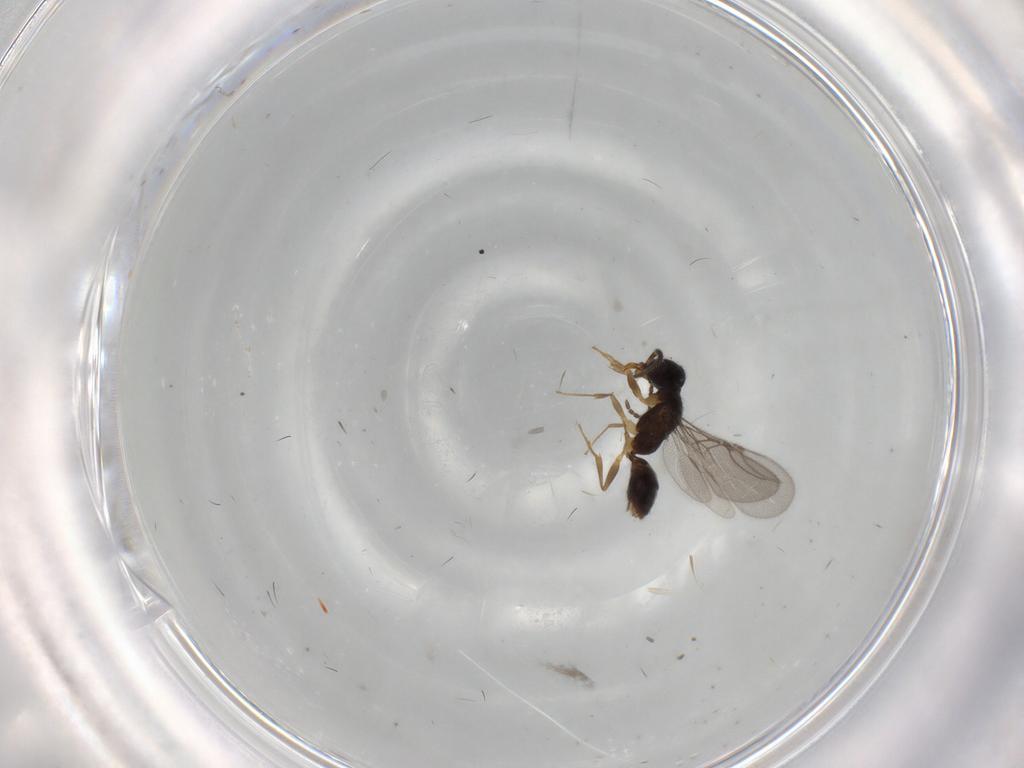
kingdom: Animalia
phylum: Arthropoda
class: Insecta
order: Hymenoptera
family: Bethylidae
